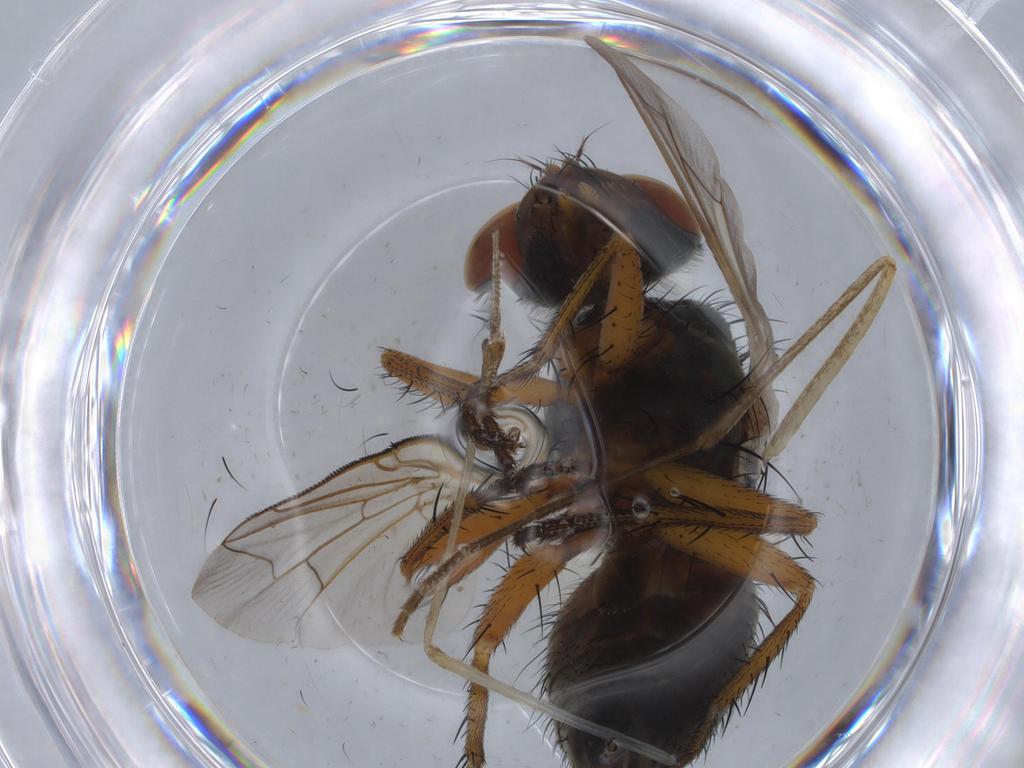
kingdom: Animalia
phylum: Arthropoda
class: Insecta
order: Diptera
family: Sarcophagidae
